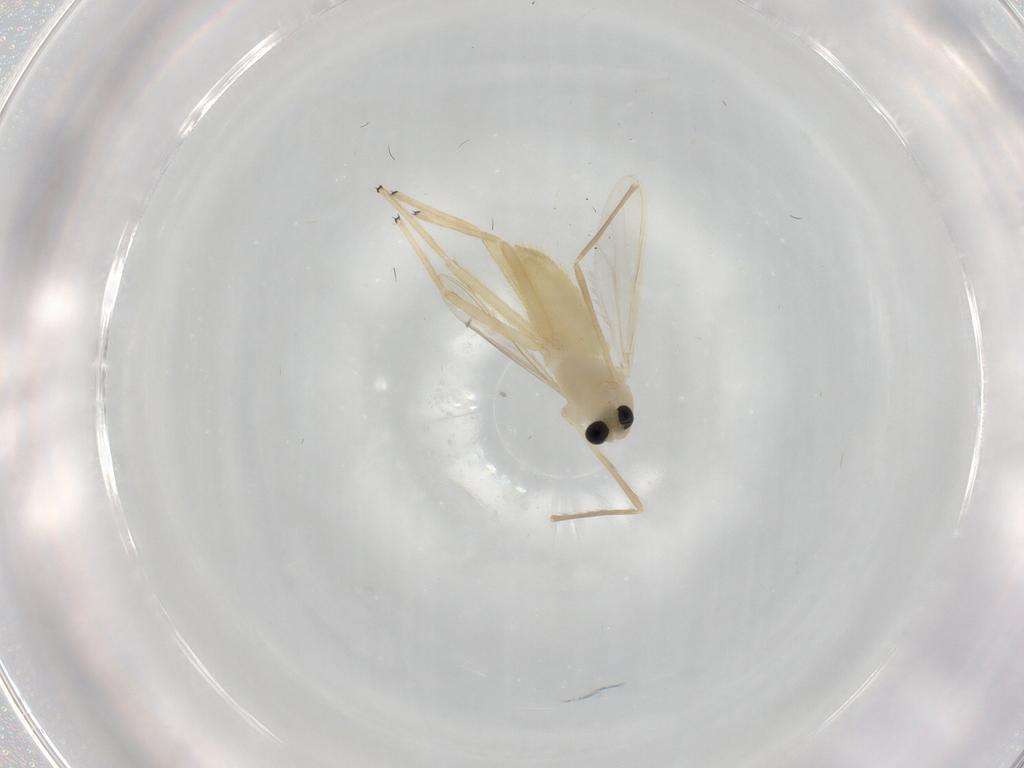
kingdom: Animalia
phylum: Arthropoda
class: Insecta
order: Diptera
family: Chironomidae
